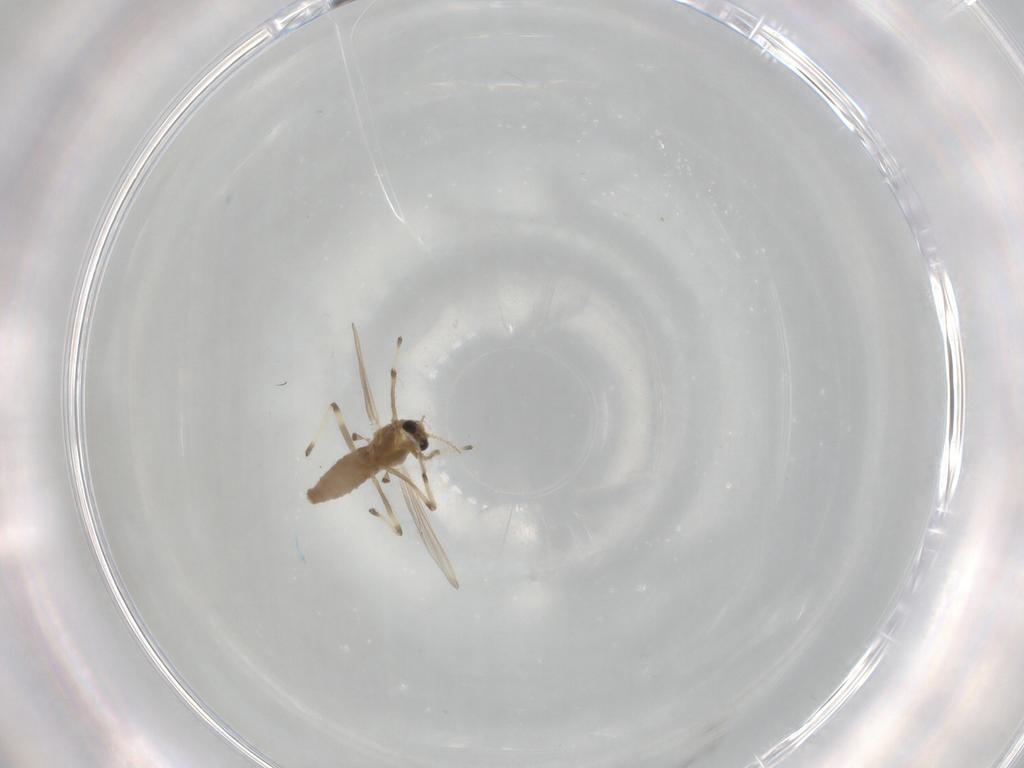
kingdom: Animalia
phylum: Arthropoda
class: Insecta
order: Diptera
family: Chironomidae
